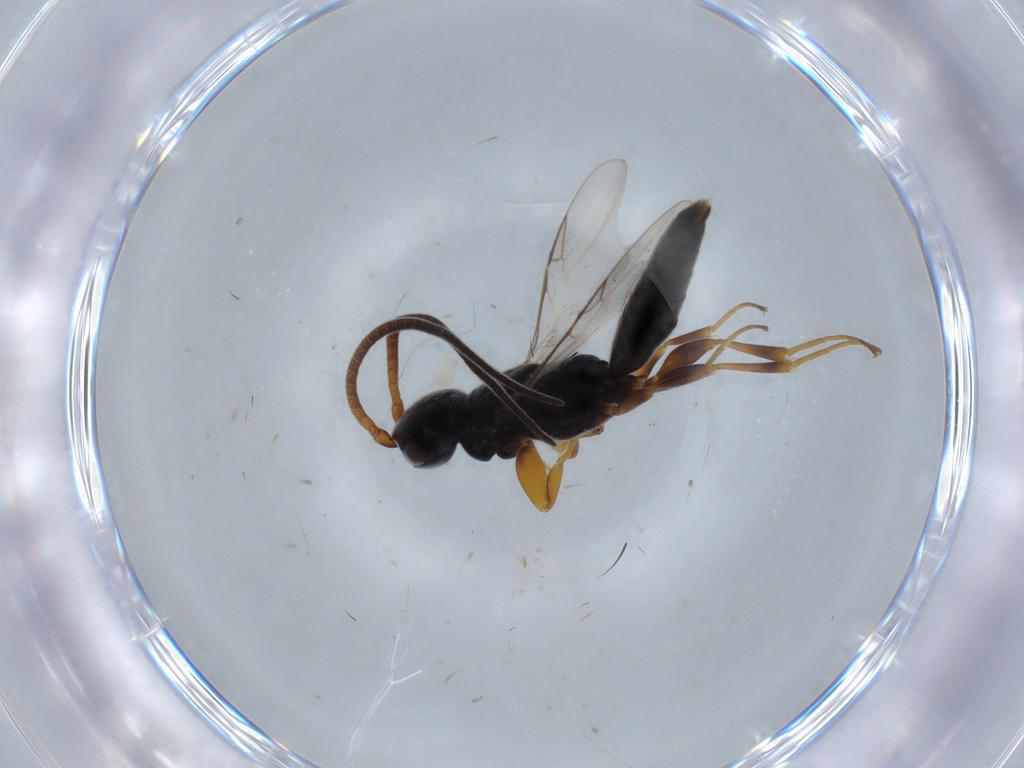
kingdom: Animalia
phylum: Arthropoda
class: Insecta
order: Hymenoptera
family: Sclerogibbidae
